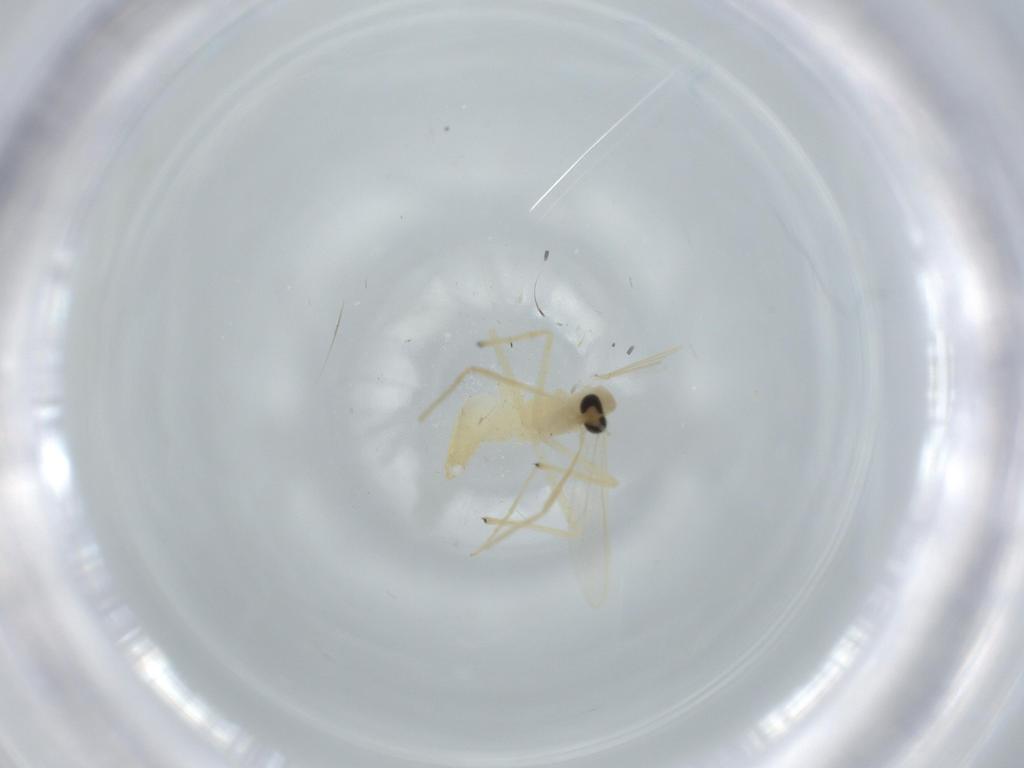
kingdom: Animalia
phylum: Arthropoda
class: Insecta
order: Diptera
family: Chironomidae
